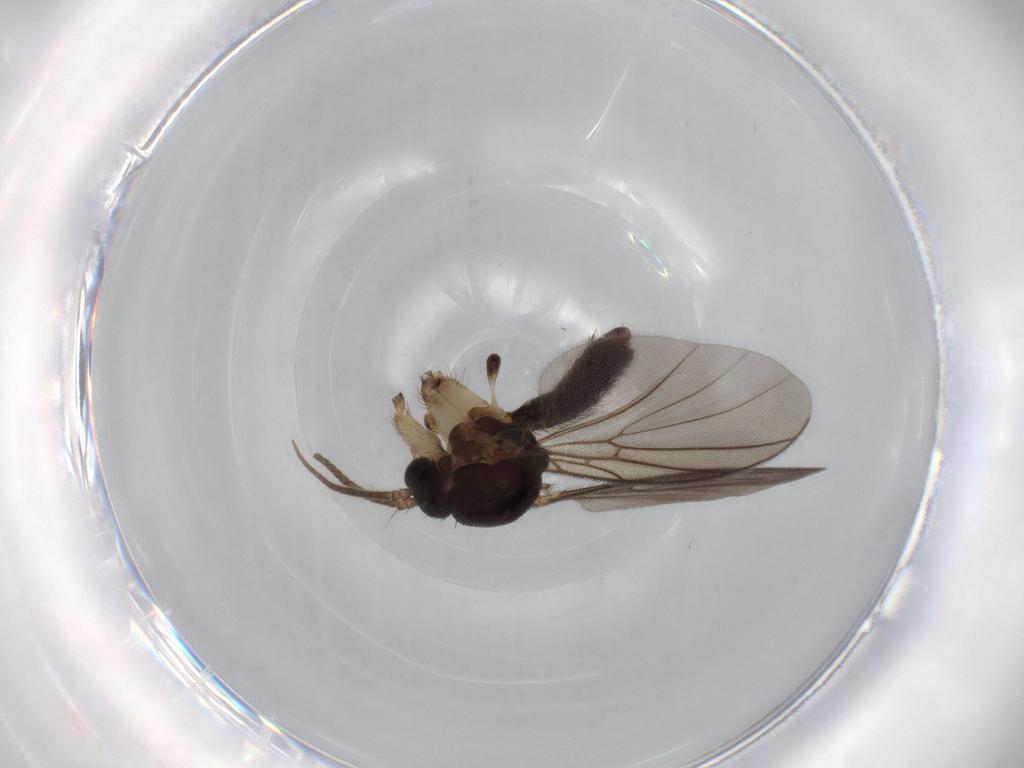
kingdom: Animalia
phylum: Arthropoda
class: Insecta
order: Diptera
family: Mycetophilidae
